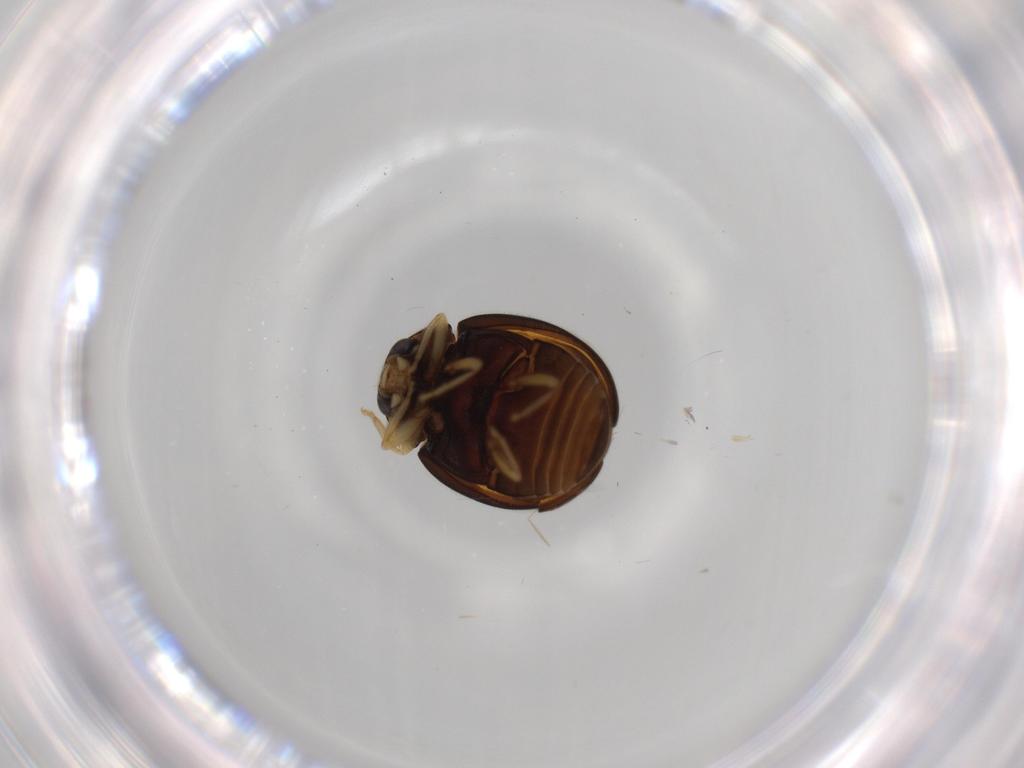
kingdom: Animalia
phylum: Arthropoda
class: Insecta
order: Coleoptera
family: Coccinellidae
